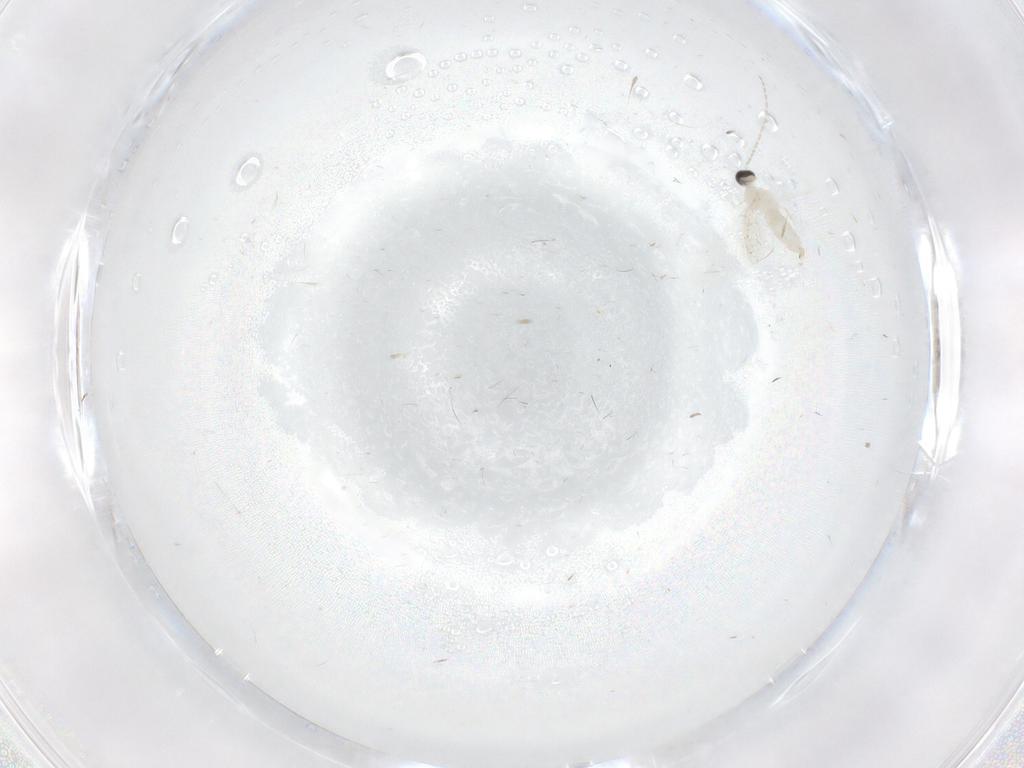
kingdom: Animalia
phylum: Arthropoda
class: Insecta
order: Diptera
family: Cecidomyiidae
